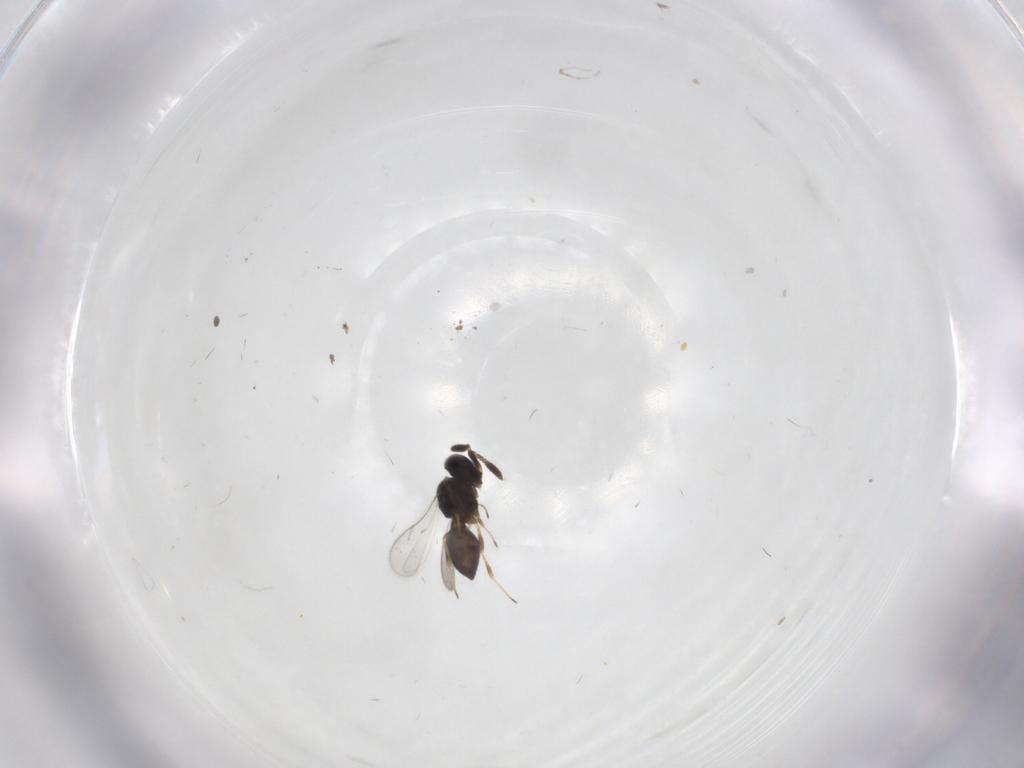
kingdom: Animalia
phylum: Arthropoda
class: Insecta
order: Hymenoptera
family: Scelionidae
